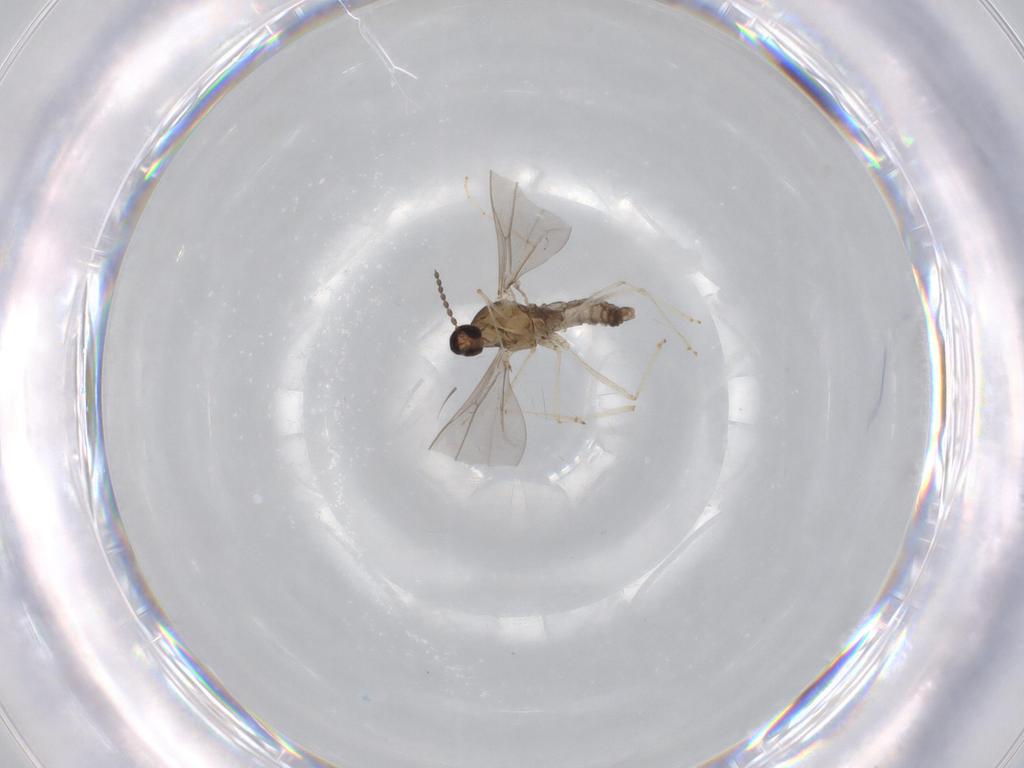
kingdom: Animalia
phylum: Arthropoda
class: Insecta
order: Diptera
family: Cecidomyiidae
